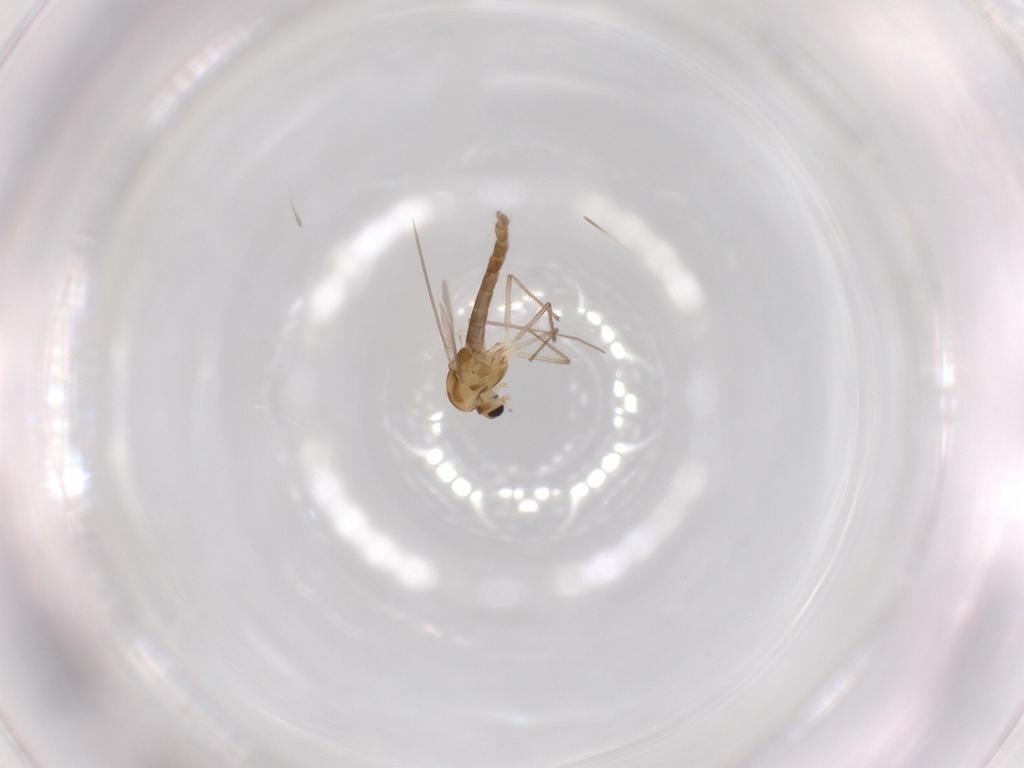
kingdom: Animalia
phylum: Arthropoda
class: Insecta
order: Diptera
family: Chironomidae
